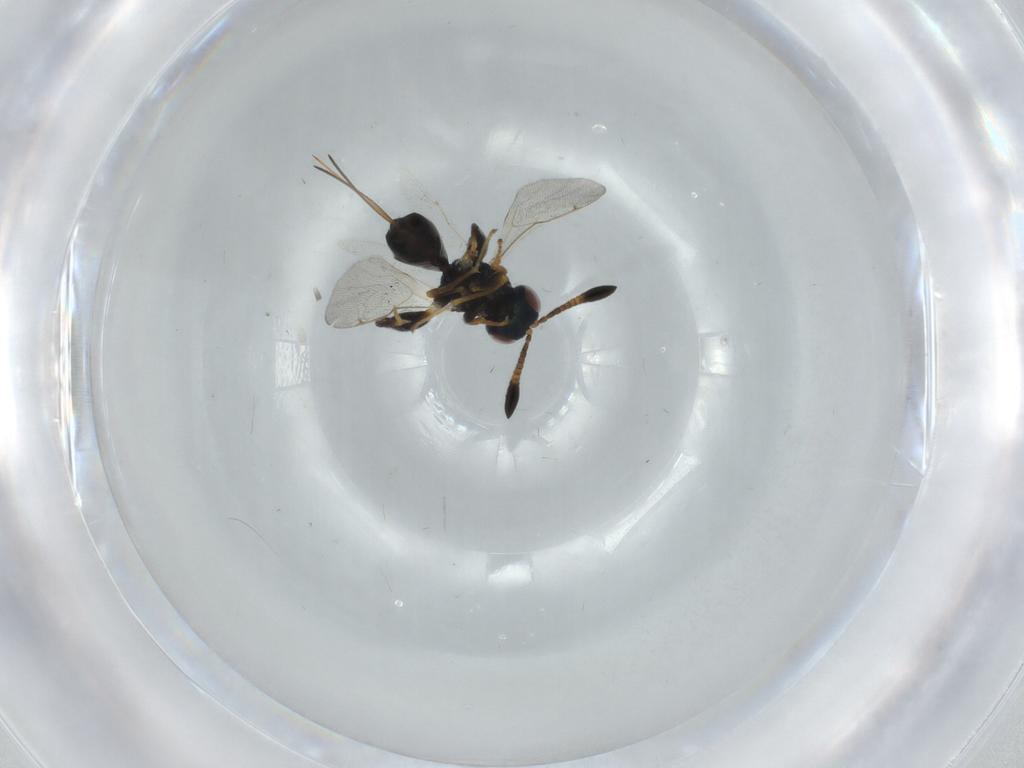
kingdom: Animalia
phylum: Arthropoda
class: Insecta
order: Hymenoptera
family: Torymidae
